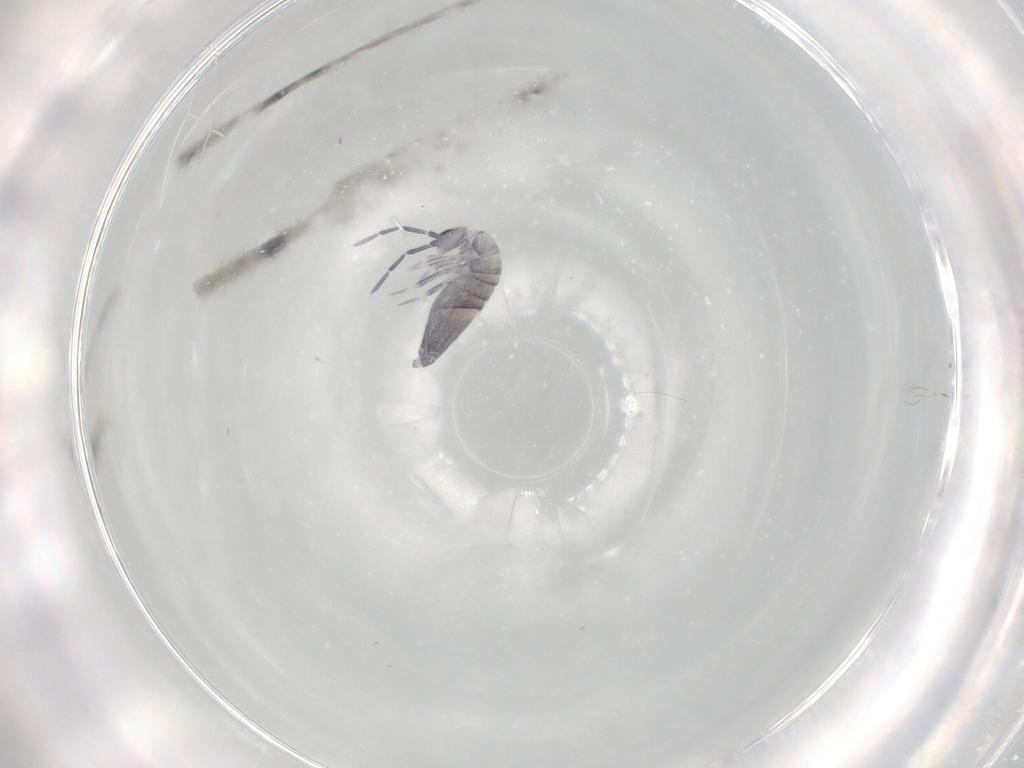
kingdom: Animalia
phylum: Arthropoda
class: Collembola
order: Entomobryomorpha
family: Entomobryidae
